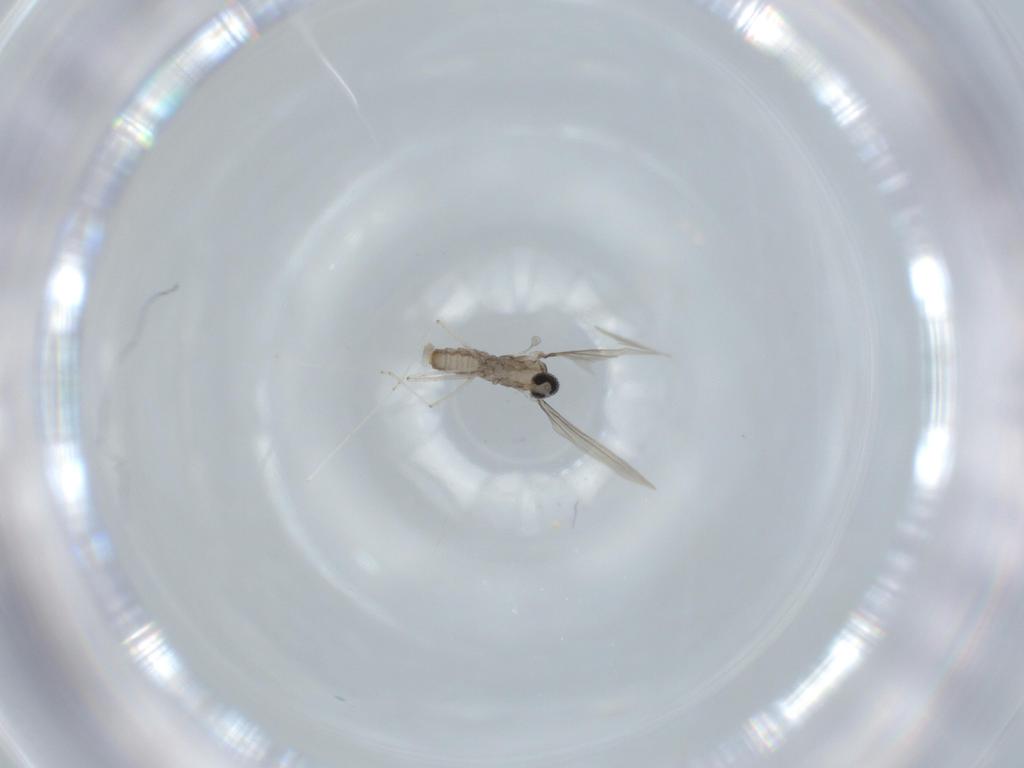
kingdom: Animalia
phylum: Arthropoda
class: Insecta
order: Diptera
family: Cecidomyiidae
